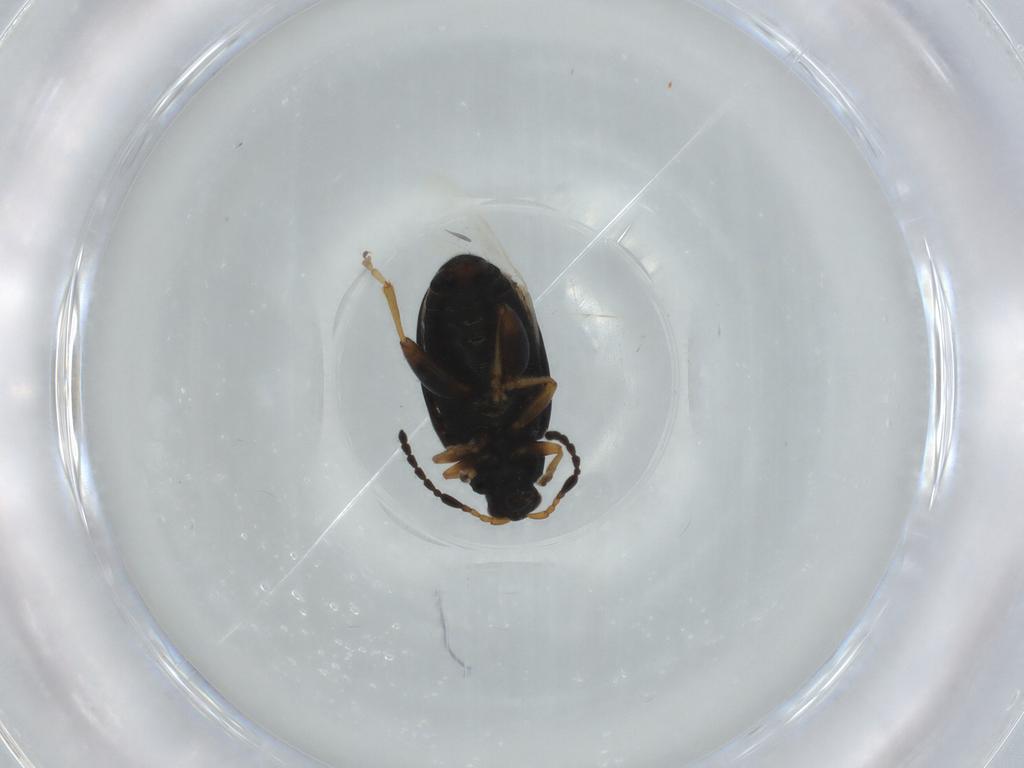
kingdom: Animalia
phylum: Arthropoda
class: Insecta
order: Coleoptera
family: Chrysomelidae
